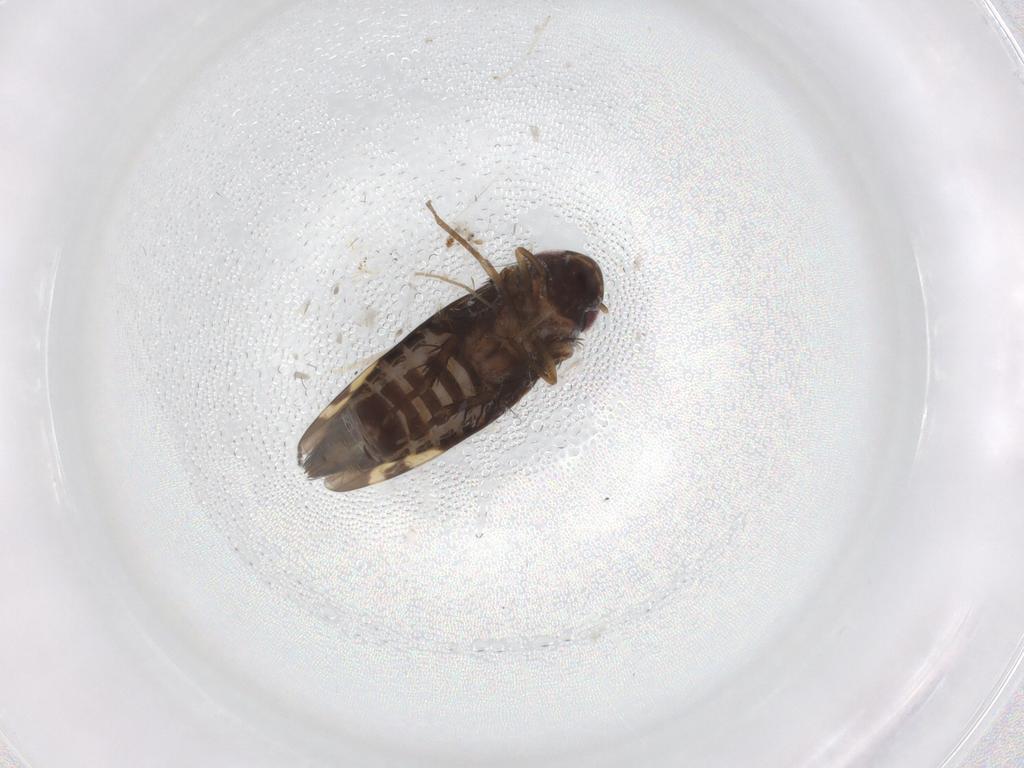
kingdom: Animalia
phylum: Arthropoda
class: Insecta
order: Hemiptera
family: Cicadellidae
